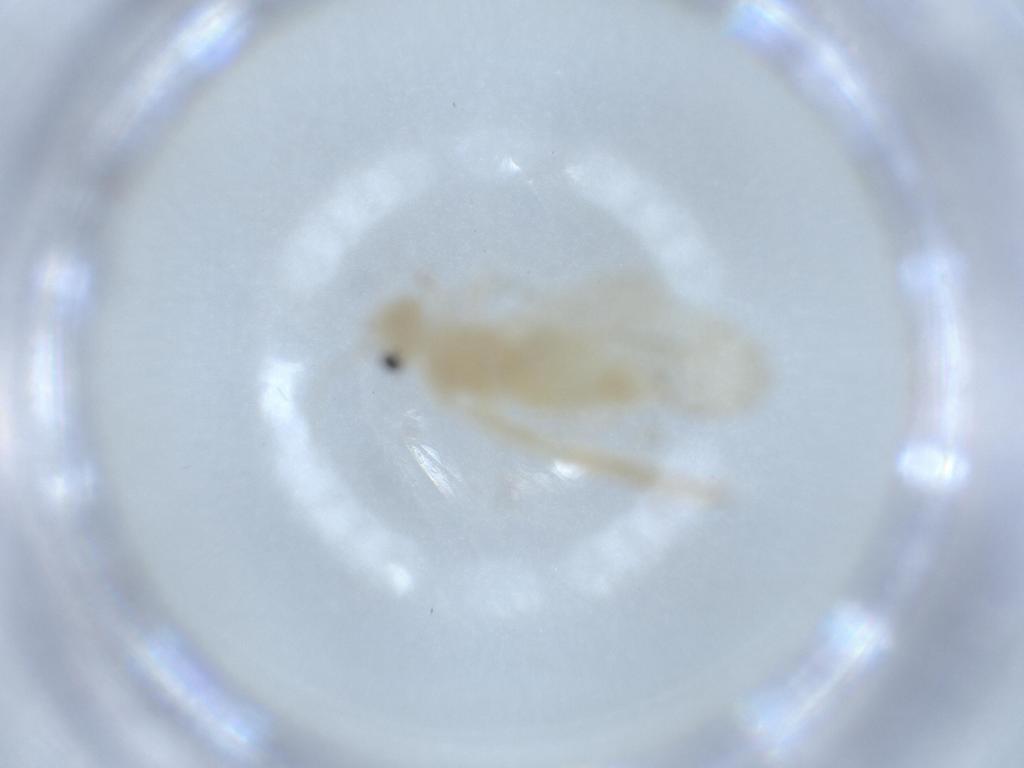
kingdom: Animalia
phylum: Arthropoda
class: Insecta
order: Psocodea
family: Caeciliusidae
